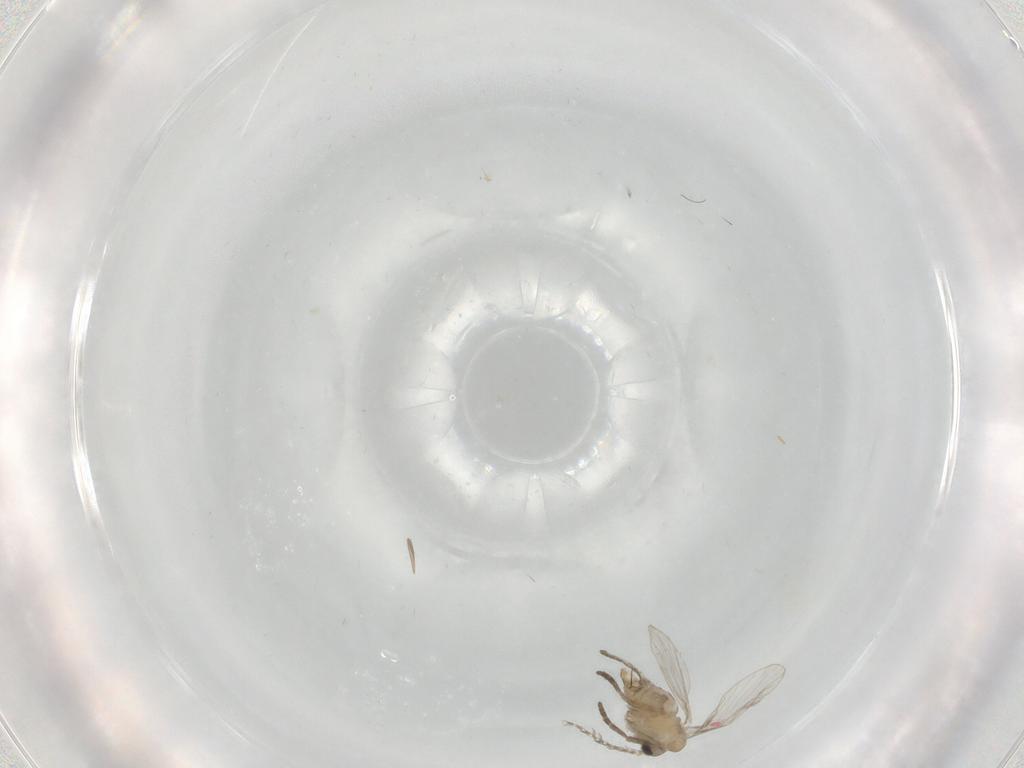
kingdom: Animalia
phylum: Arthropoda
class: Insecta
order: Diptera
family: Psychodidae
